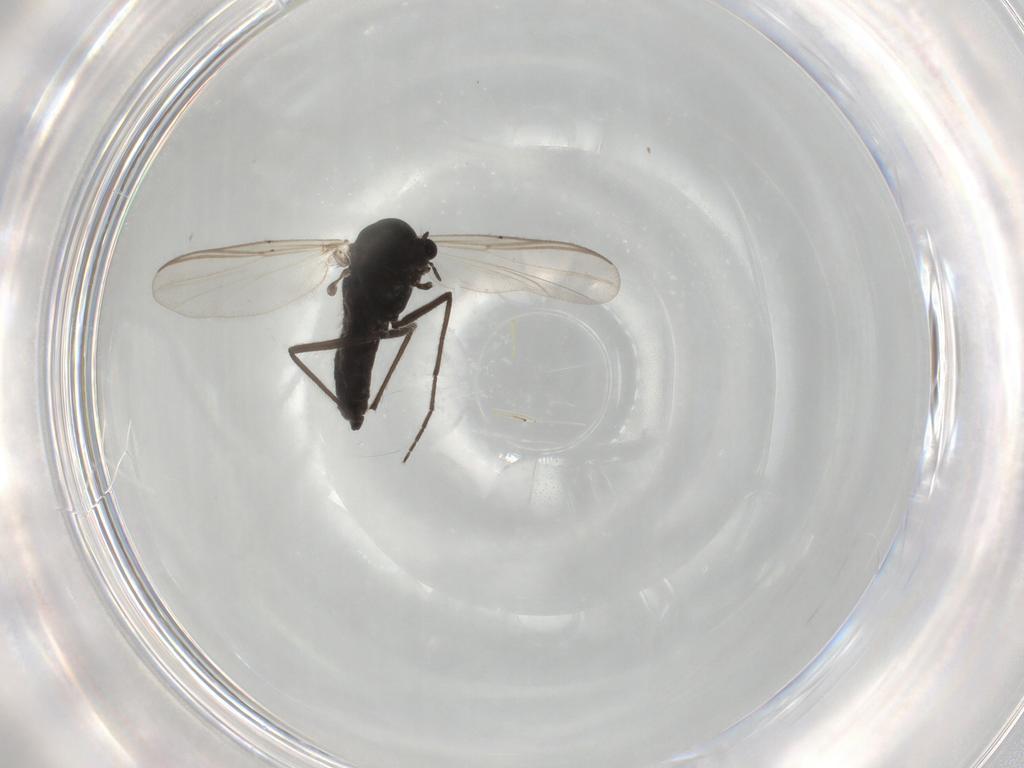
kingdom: Animalia
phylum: Arthropoda
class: Insecta
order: Diptera
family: Chironomidae
